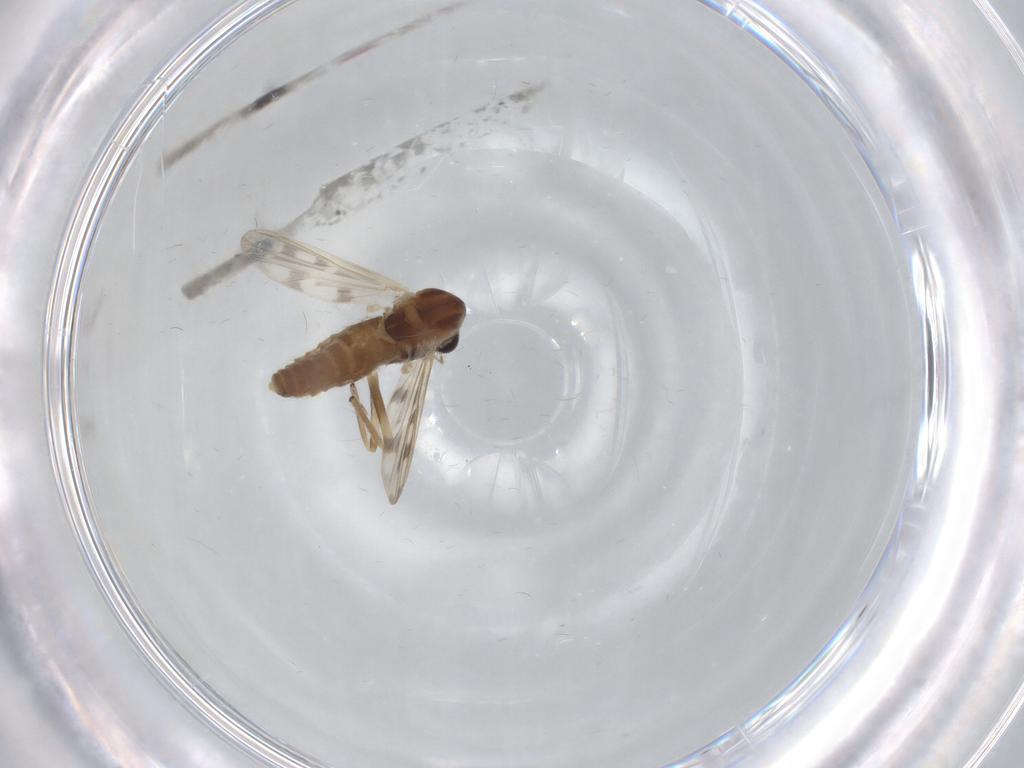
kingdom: Animalia
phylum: Arthropoda
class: Insecta
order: Diptera
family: Chironomidae
